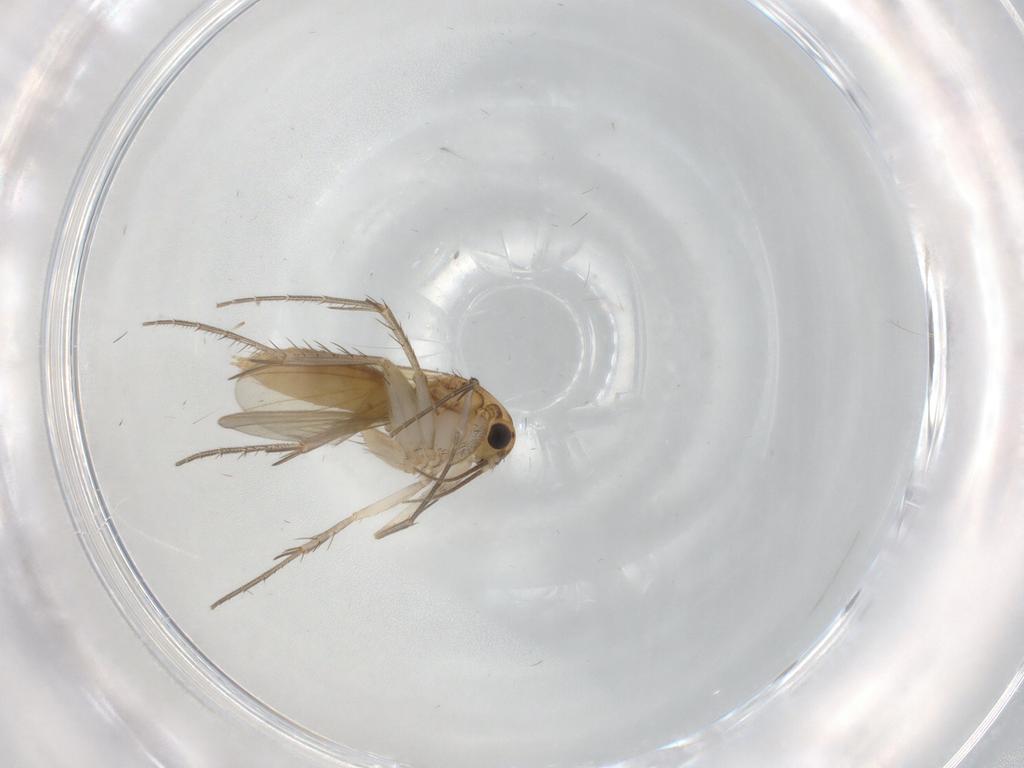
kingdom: Animalia
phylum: Arthropoda
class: Insecta
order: Diptera
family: Mycetophilidae
